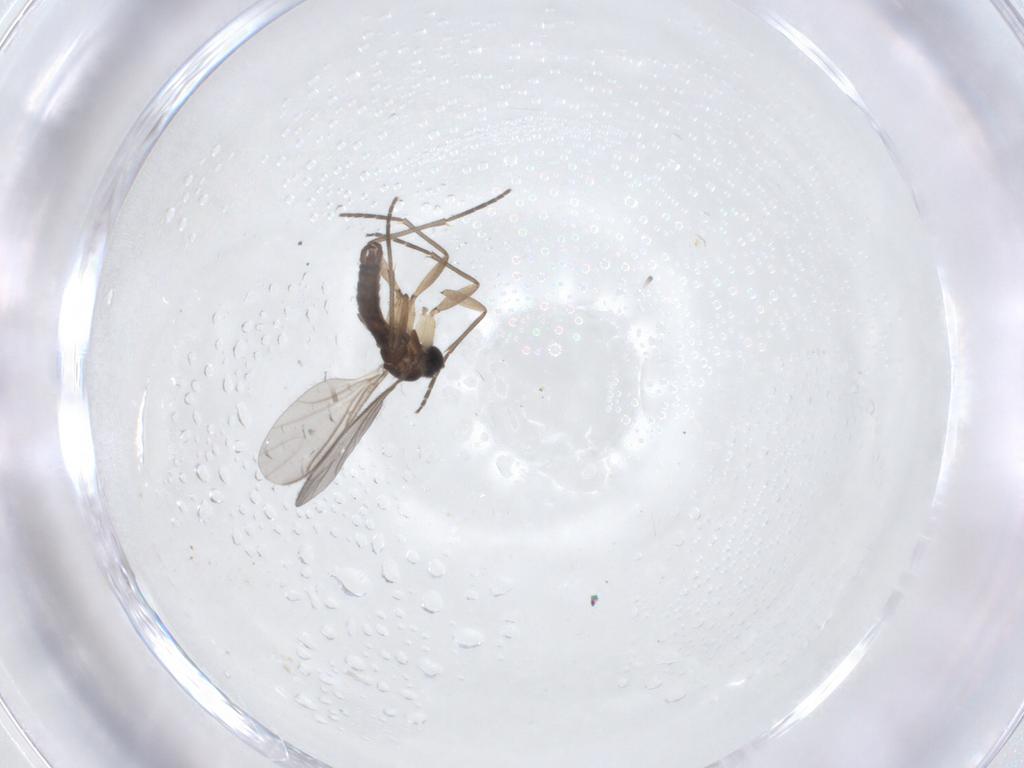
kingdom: Animalia
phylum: Arthropoda
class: Insecta
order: Diptera
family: Sciaridae
